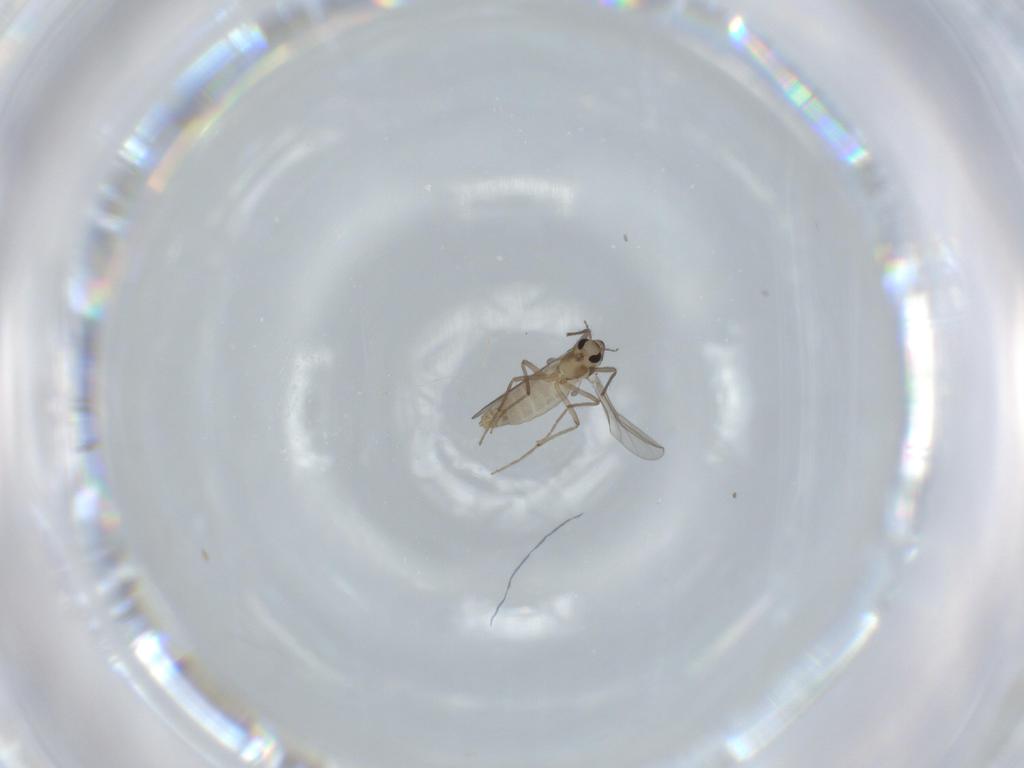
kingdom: Animalia
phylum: Arthropoda
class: Insecta
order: Diptera
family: Chironomidae
